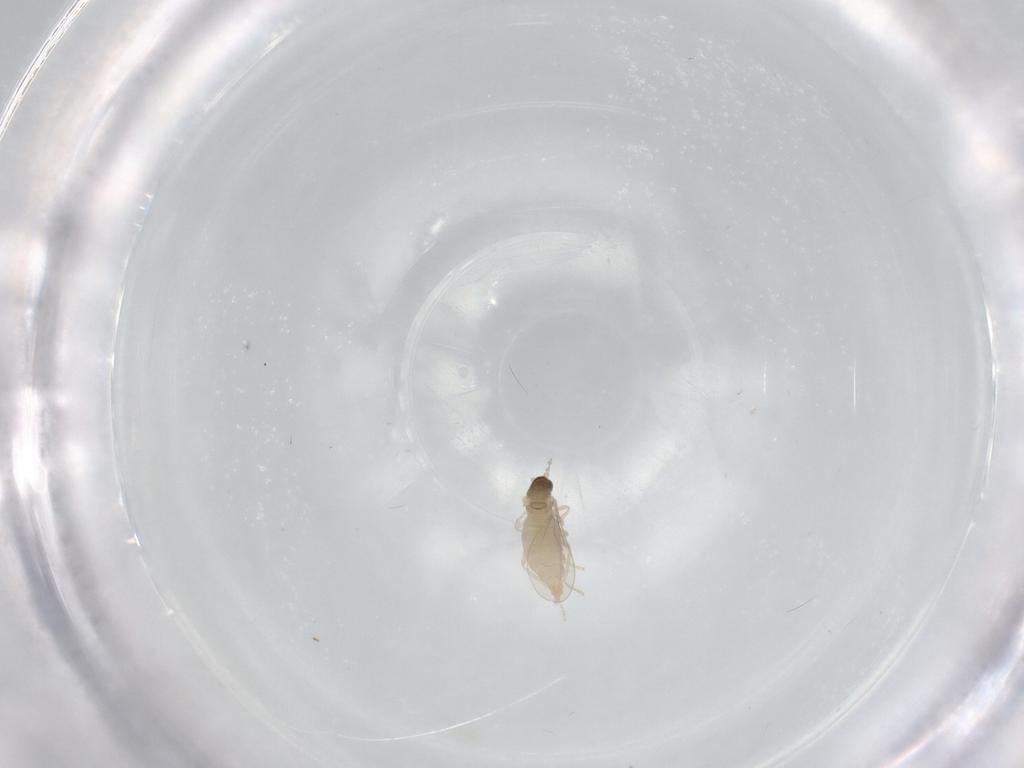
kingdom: Animalia
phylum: Arthropoda
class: Insecta
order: Diptera
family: Cecidomyiidae
